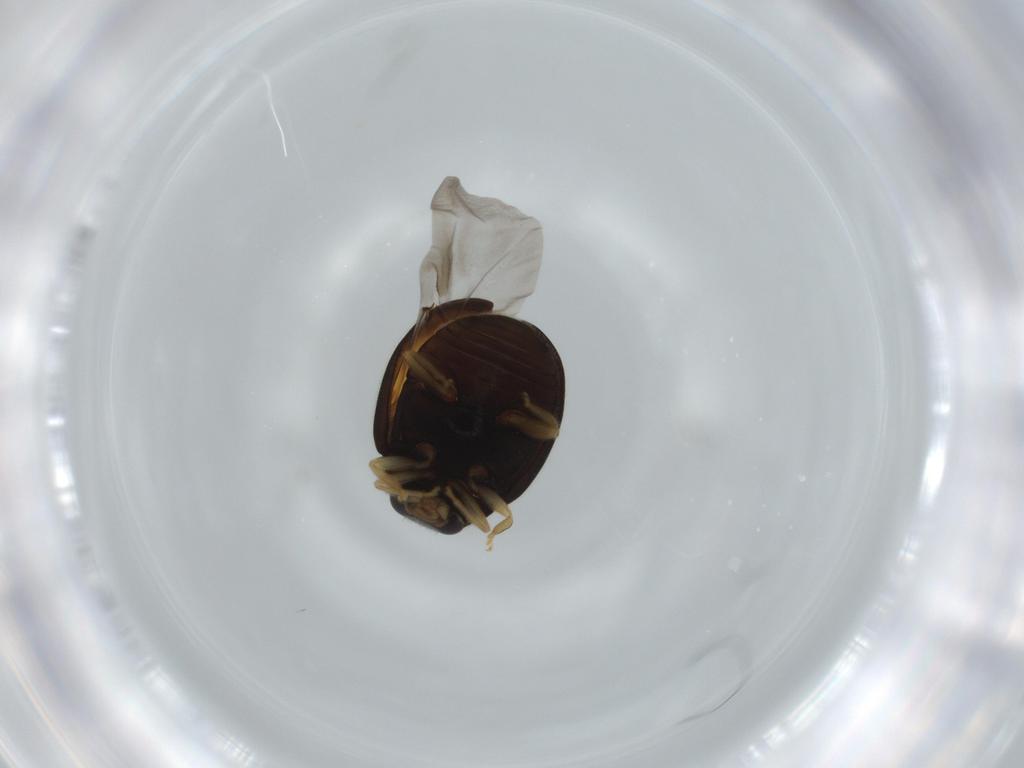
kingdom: Animalia
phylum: Arthropoda
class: Insecta
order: Coleoptera
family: Coccinellidae
